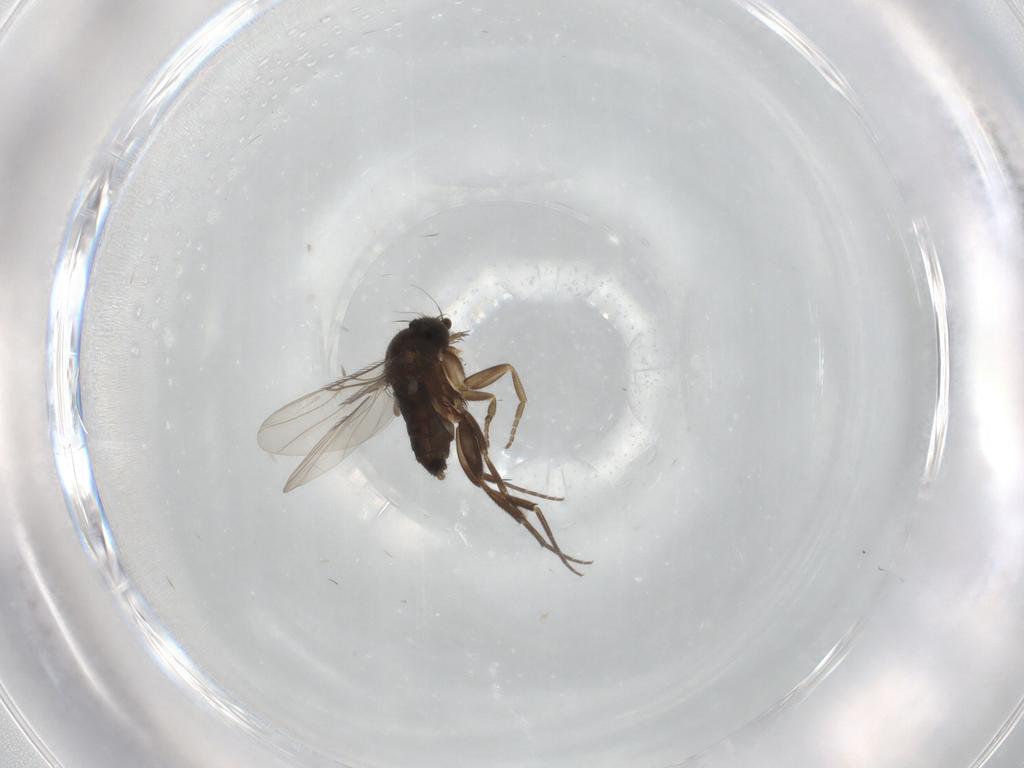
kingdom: Animalia
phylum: Arthropoda
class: Insecta
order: Diptera
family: Phoridae
